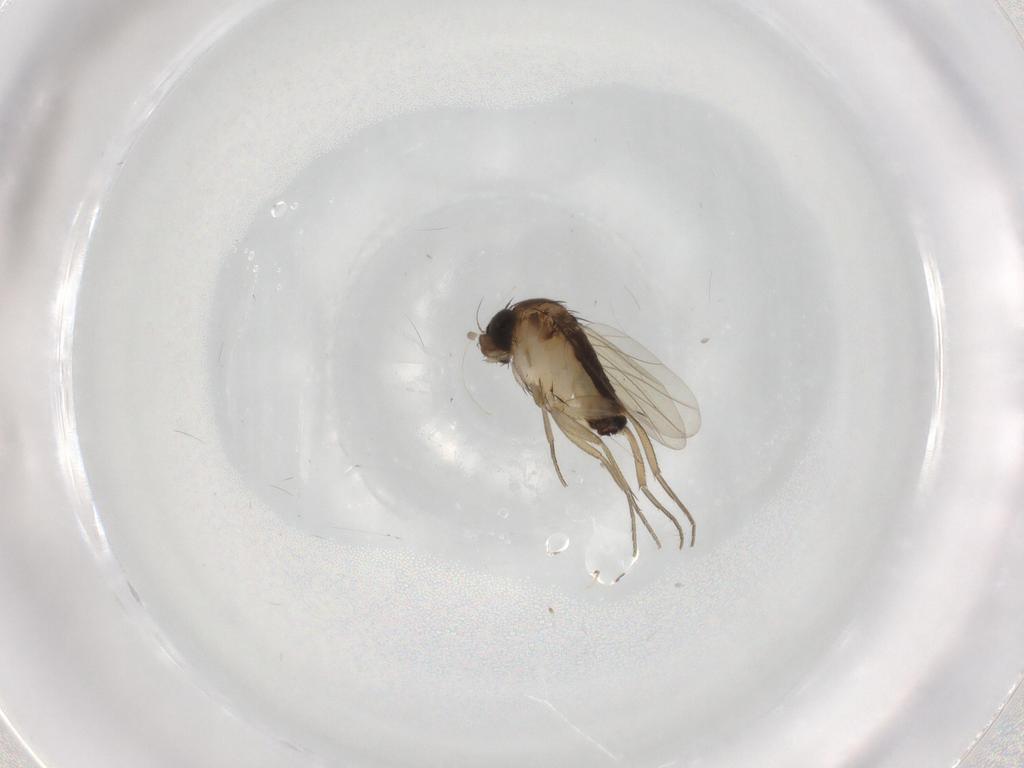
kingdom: Animalia
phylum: Arthropoda
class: Insecta
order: Diptera
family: Phoridae
